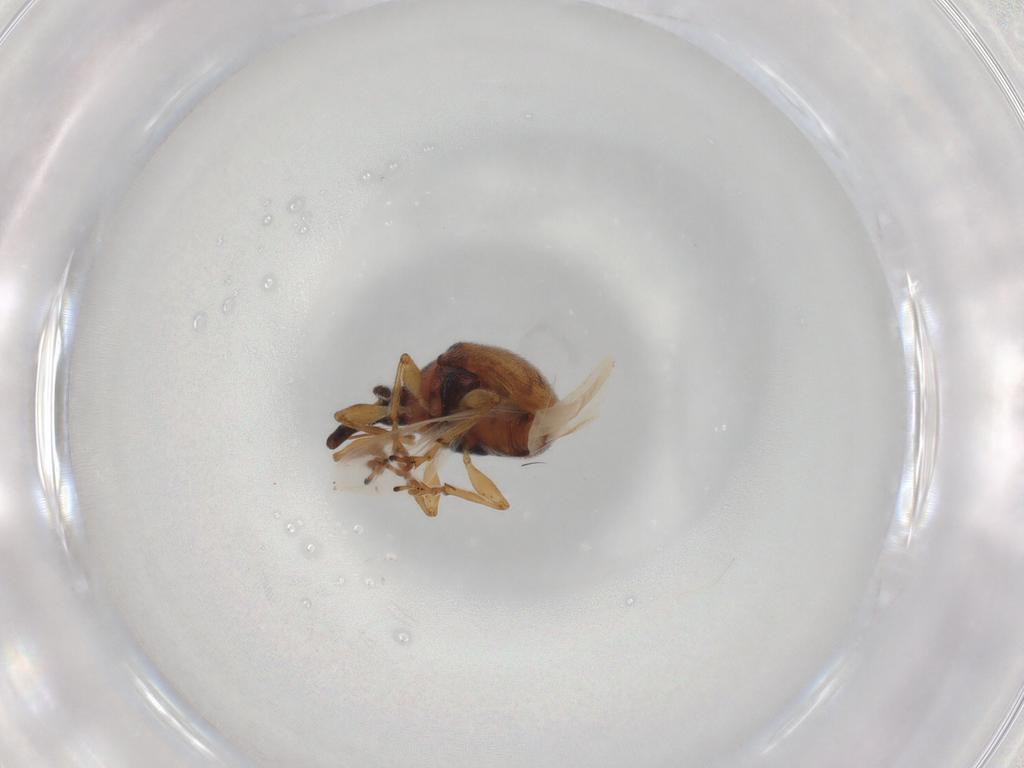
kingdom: Animalia
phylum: Arthropoda
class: Insecta
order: Coleoptera
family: Brentidae
